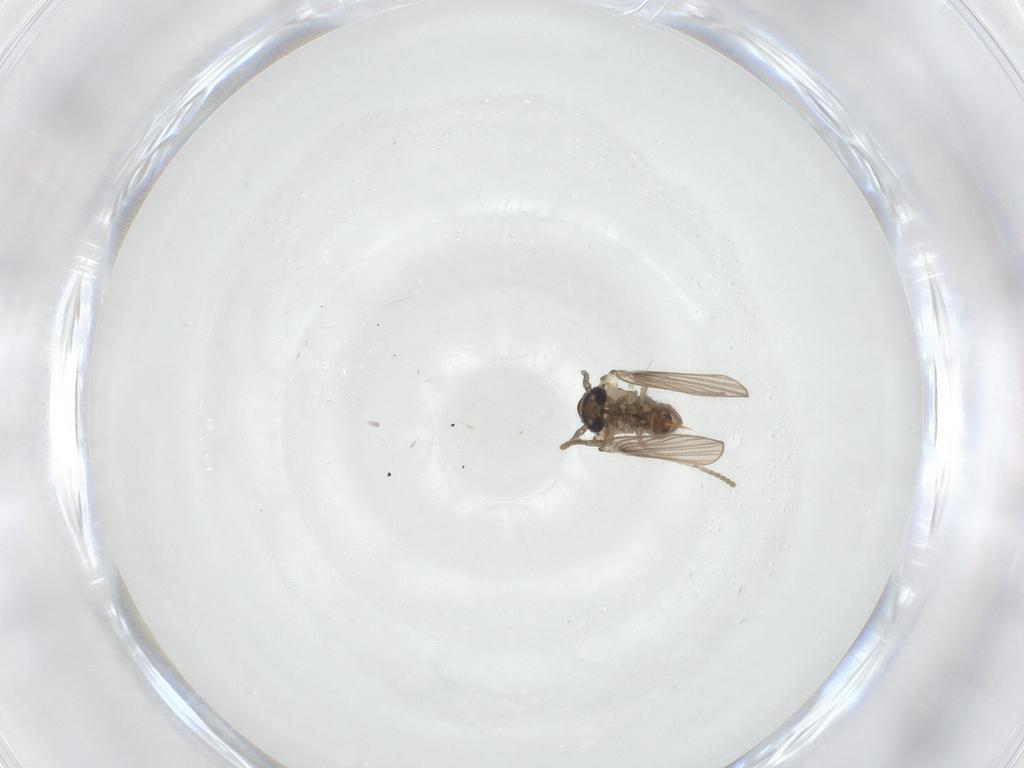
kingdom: Animalia
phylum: Arthropoda
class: Insecta
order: Diptera
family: Psychodidae
